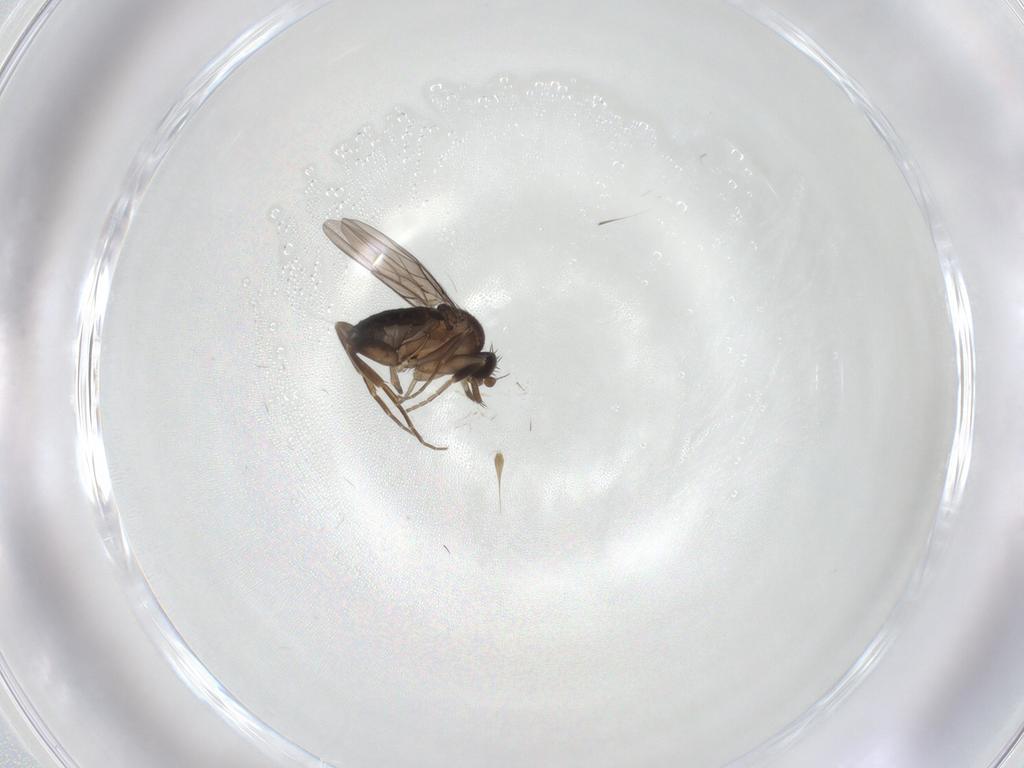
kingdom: Animalia
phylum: Arthropoda
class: Insecta
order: Diptera
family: Phoridae
